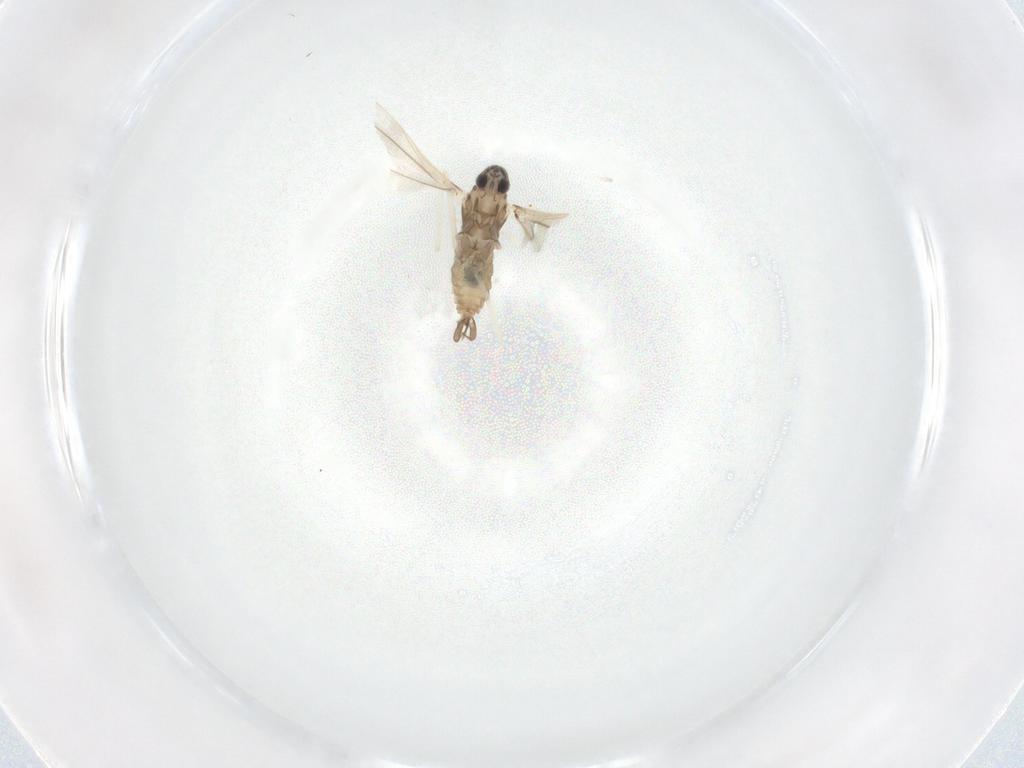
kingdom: Animalia
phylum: Arthropoda
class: Insecta
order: Diptera
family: Cecidomyiidae
